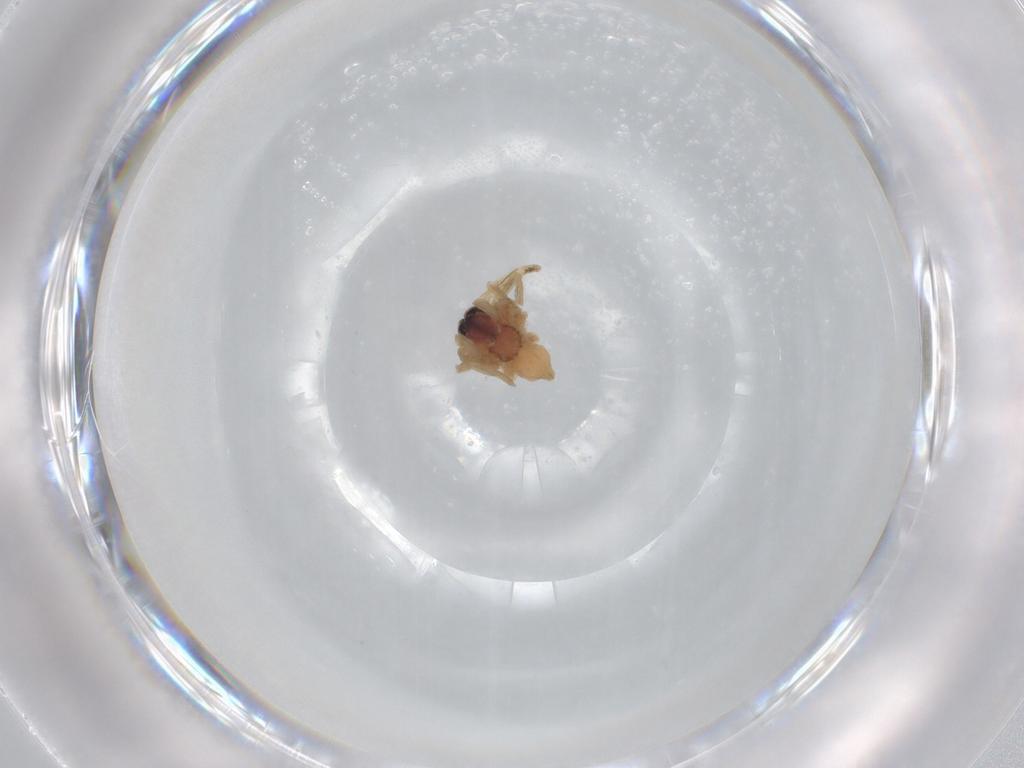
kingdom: Animalia
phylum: Arthropoda
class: Arachnida
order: Araneae
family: Lycosidae
